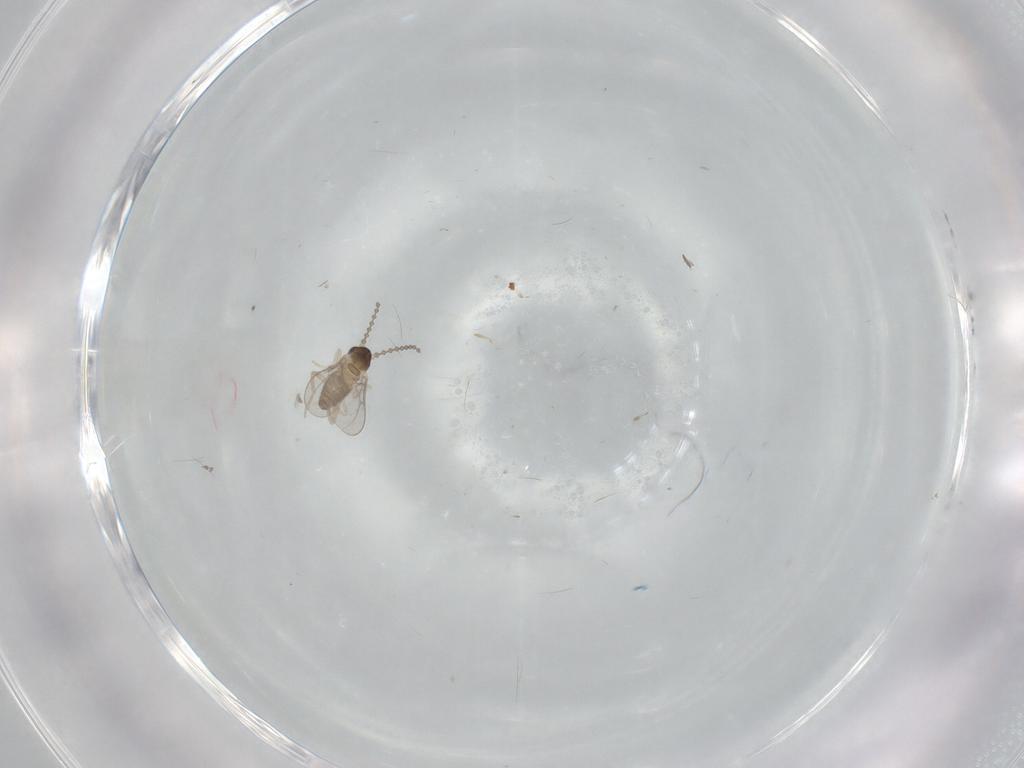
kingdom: Animalia
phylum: Arthropoda
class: Insecta
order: Diptera
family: Cecidomyiidae
